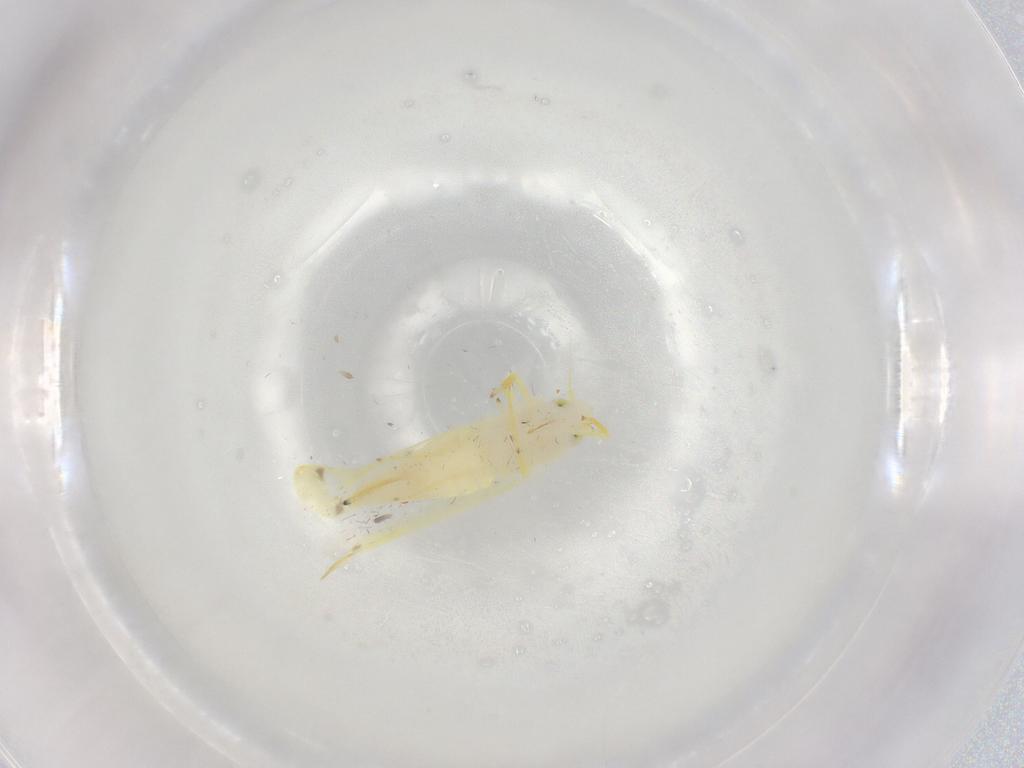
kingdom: Animalia
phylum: Arthropoda
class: Insecta
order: Hemiptera
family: Cicadellidae
